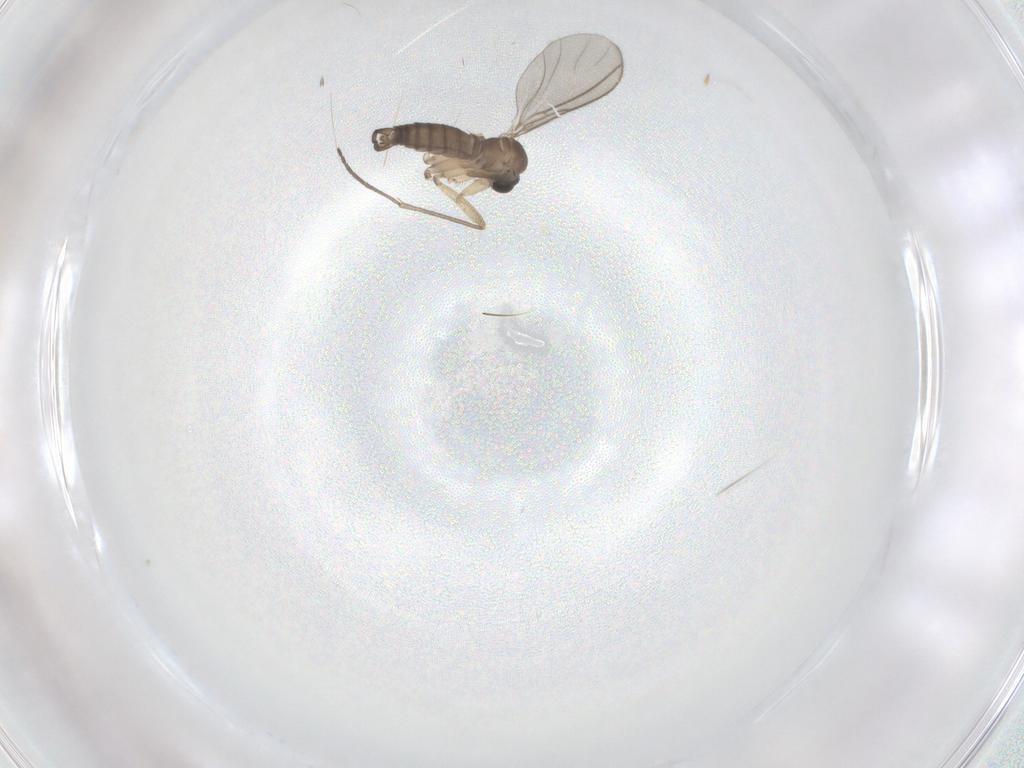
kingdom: Animalia
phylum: Arthropoda
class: Insecta
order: Diptera
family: Sciaridae
